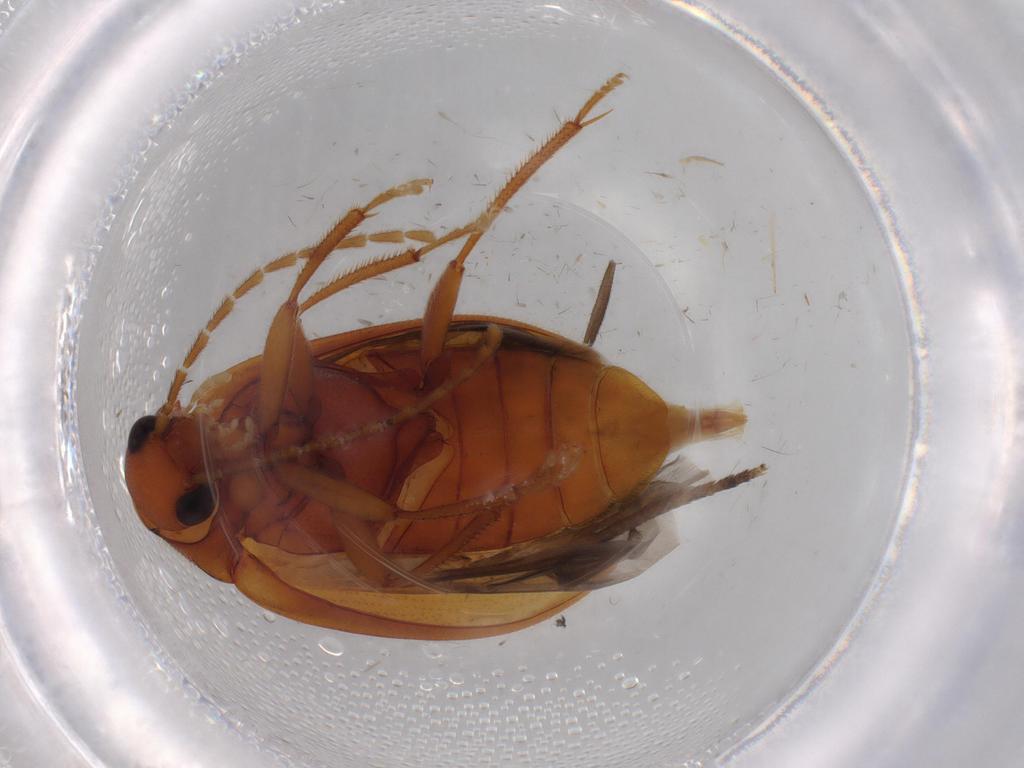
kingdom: Animalia
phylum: Arthropoda
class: Insecta
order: Coleoptera
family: Ptilodactylidae
